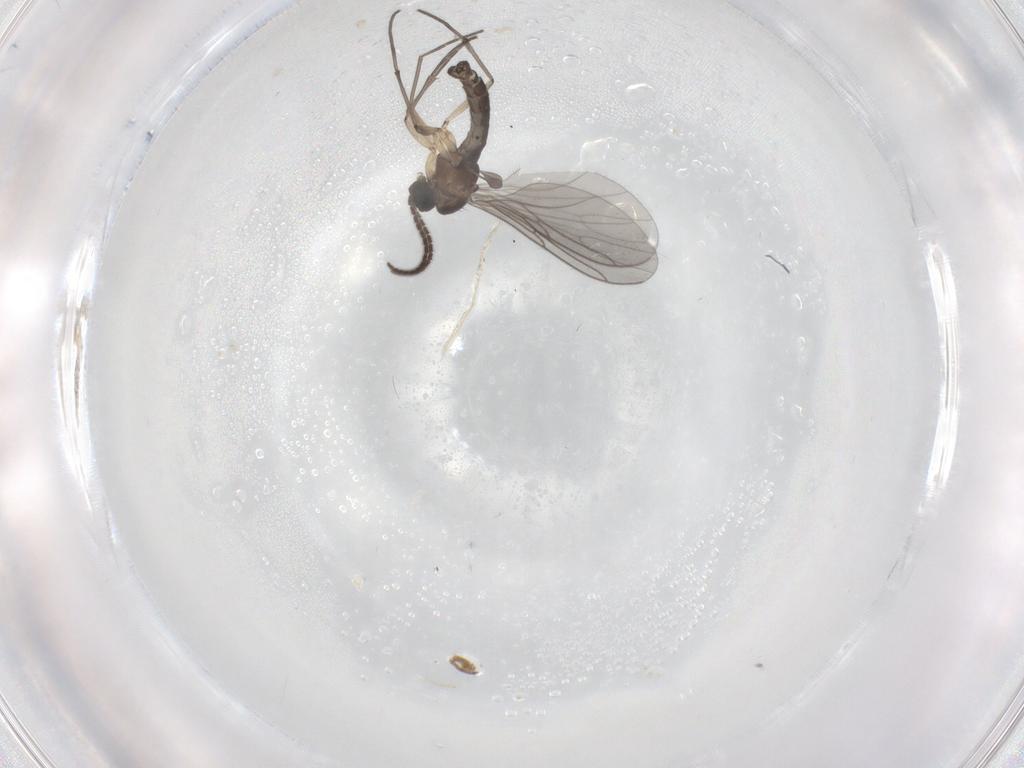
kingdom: Animalia
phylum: Arthropoda
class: Insecta
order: Diptera
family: Sciaridae
